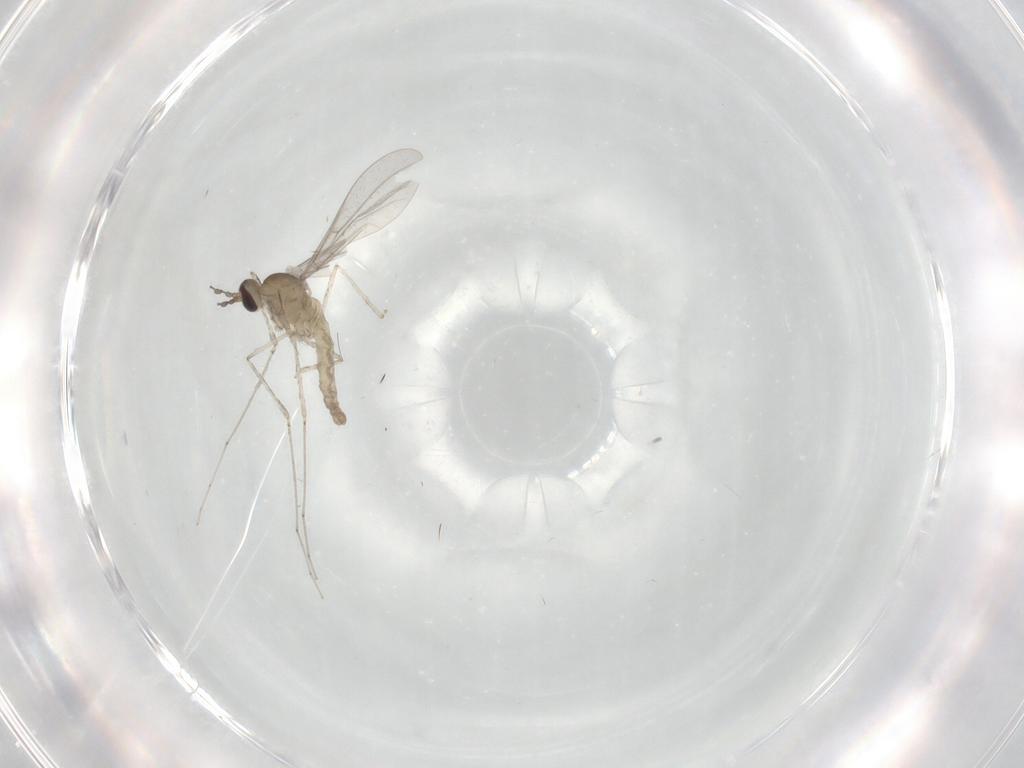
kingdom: Animalia
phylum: Arthropoda
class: Insecta
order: Diptera
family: Cecidomyiidae
